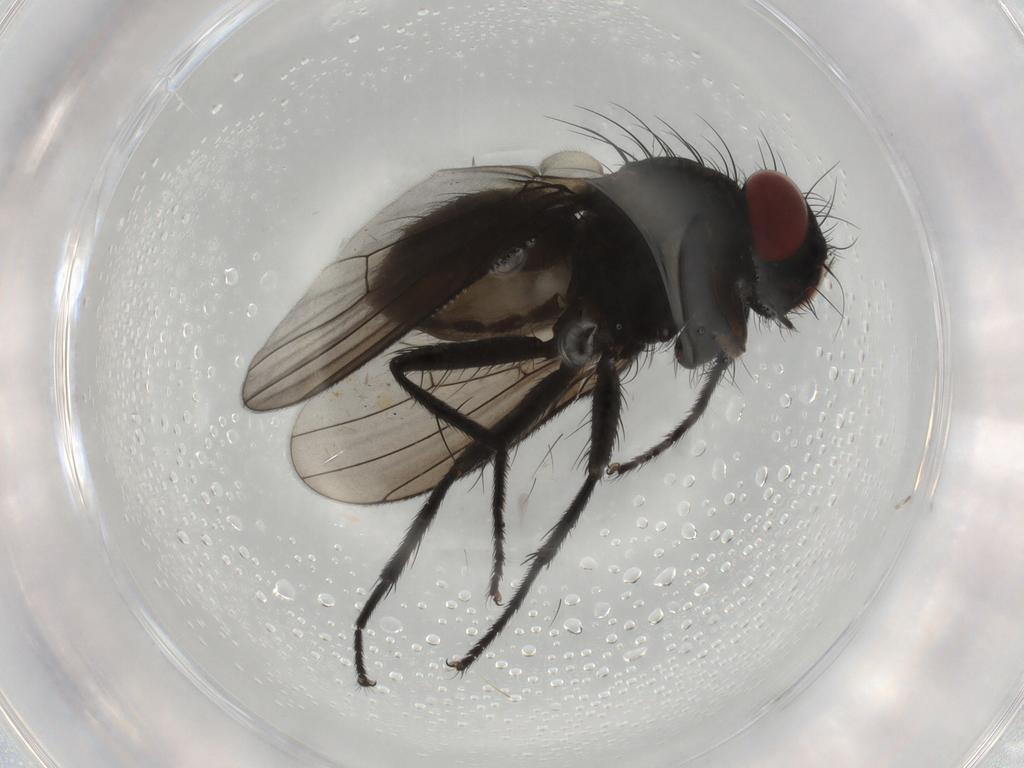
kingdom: Animalia
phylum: Arthropoda
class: Insecta
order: Diptera
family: Muscidae
